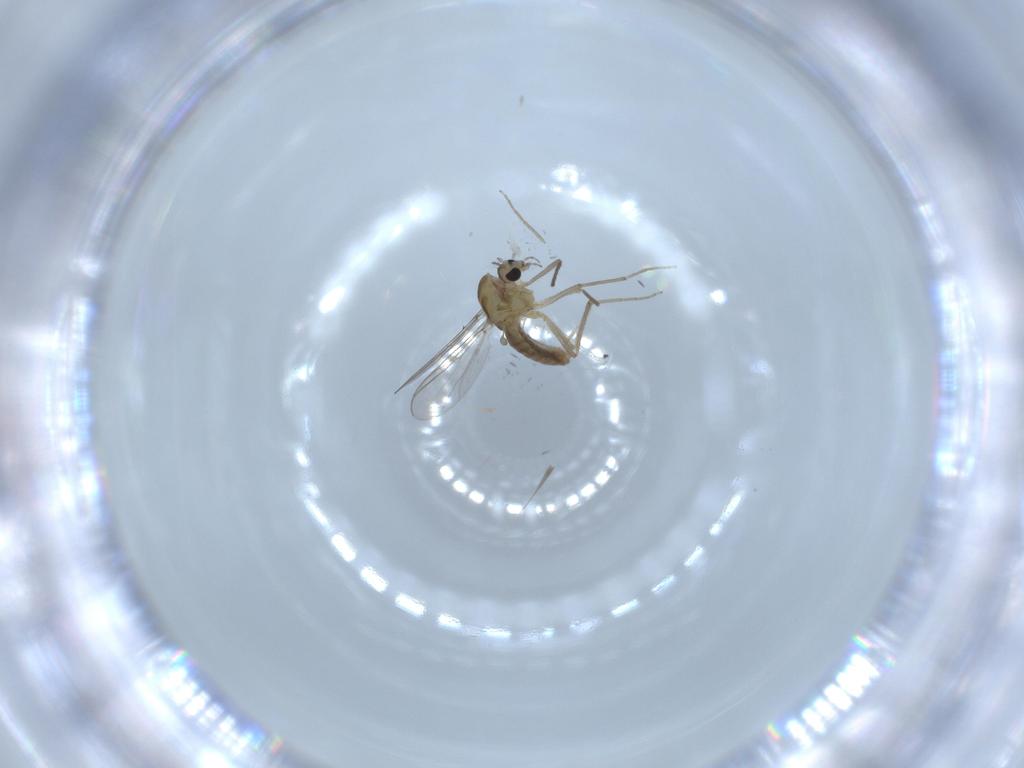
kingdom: Animalia
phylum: Arthropoda
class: Insecta
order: Diptera
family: Chironomidae
